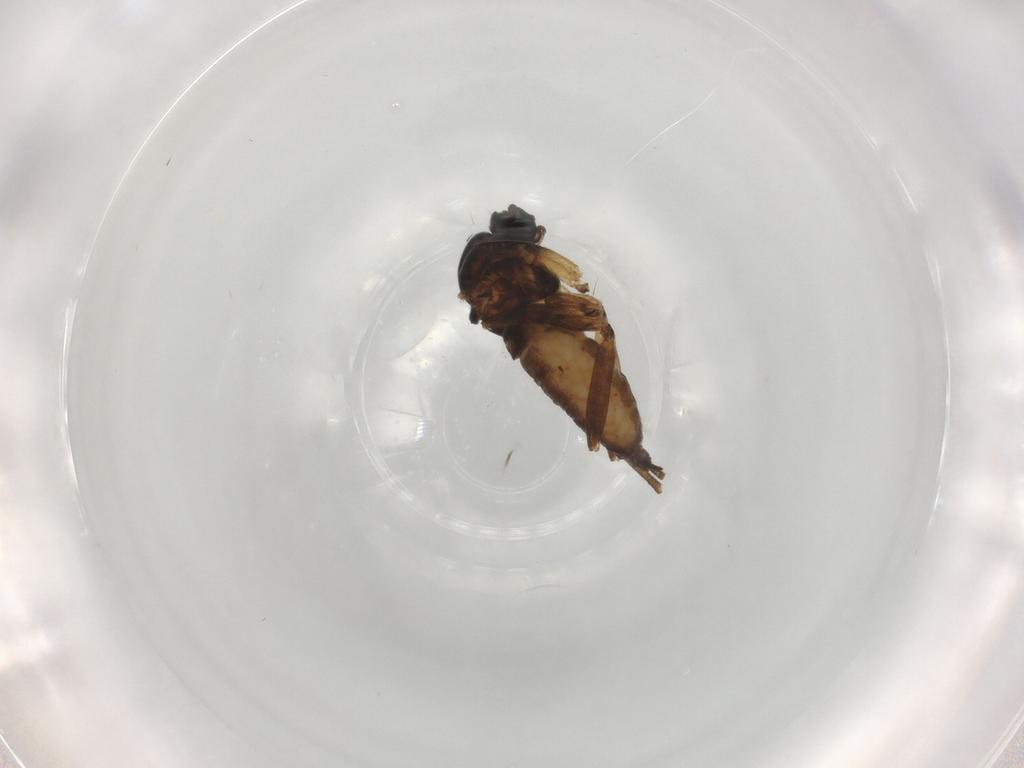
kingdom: Animalia
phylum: Arthropoda
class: Insecta
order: Diptera
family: Sciaridae
